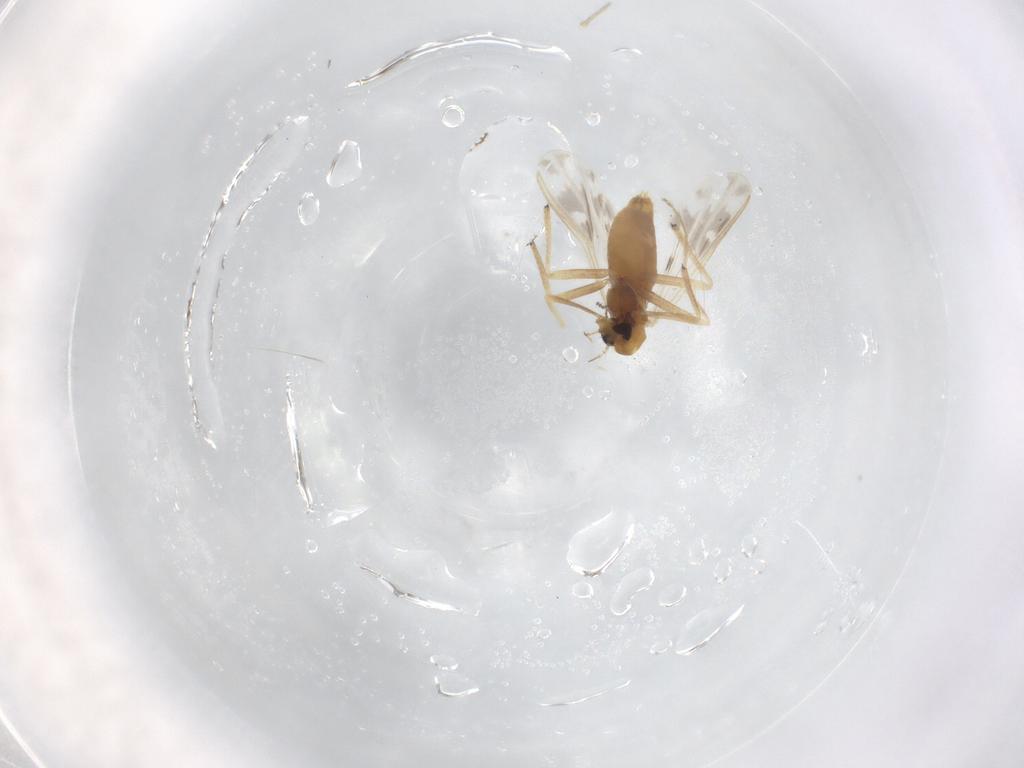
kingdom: Animalia
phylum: Arthropoda
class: Insecta
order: Diptera
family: Chironomidae
